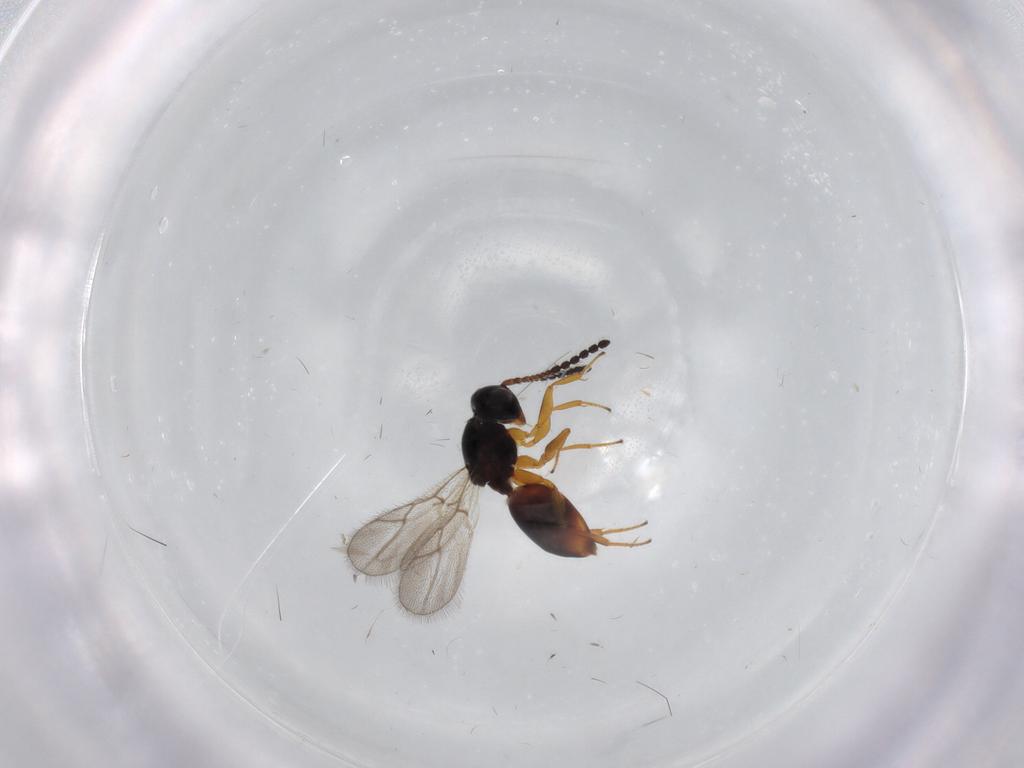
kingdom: Animalia
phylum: Arthropoda
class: Insecta
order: Hymenoptera
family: Figitidae
